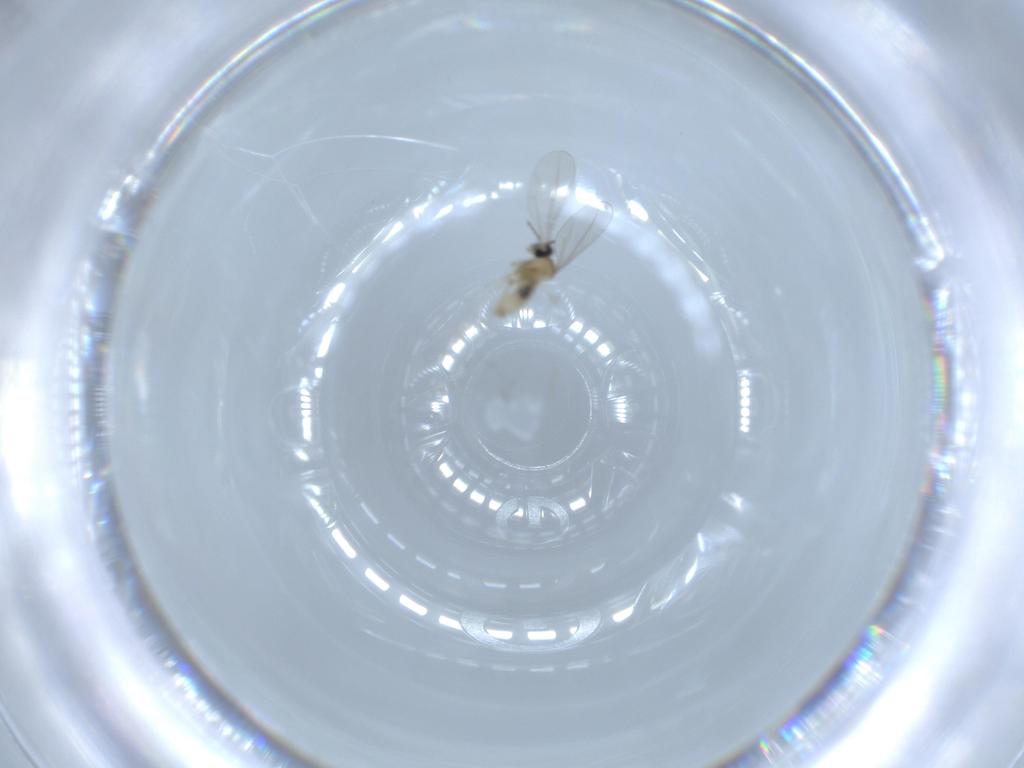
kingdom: Animalia
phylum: Arthropoda
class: Insecta
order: Diptera
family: Cecidomyiidae
